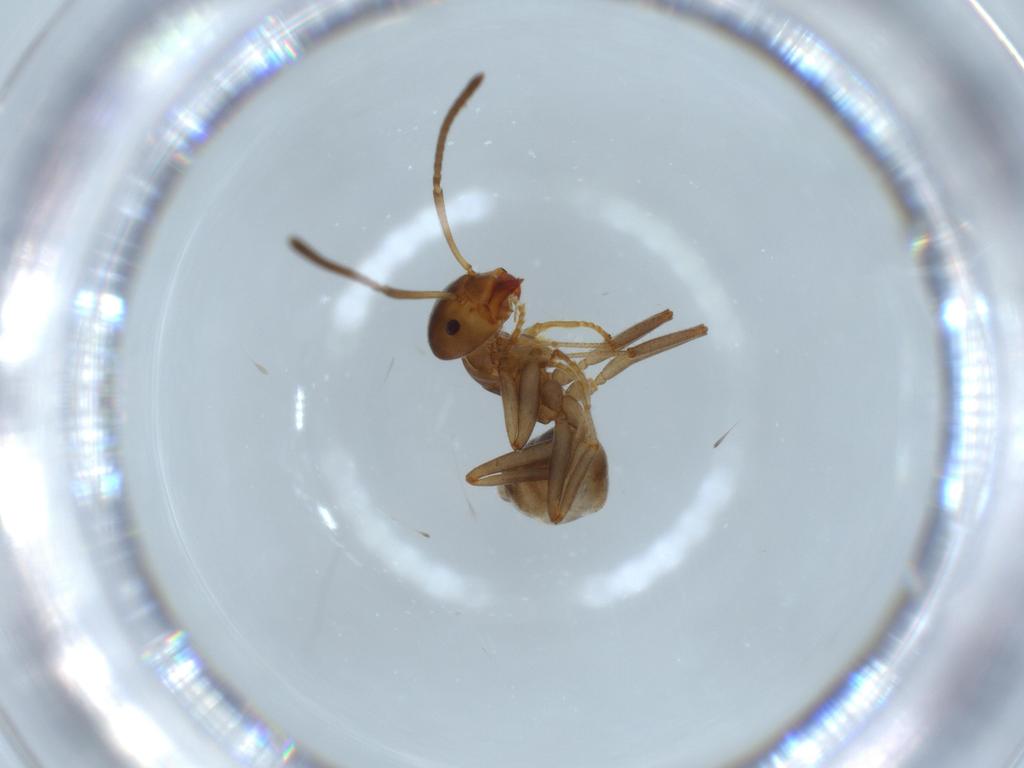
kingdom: Animalia
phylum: Arthropoda
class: Insecta
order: Hymenoptera
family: Formicidae
